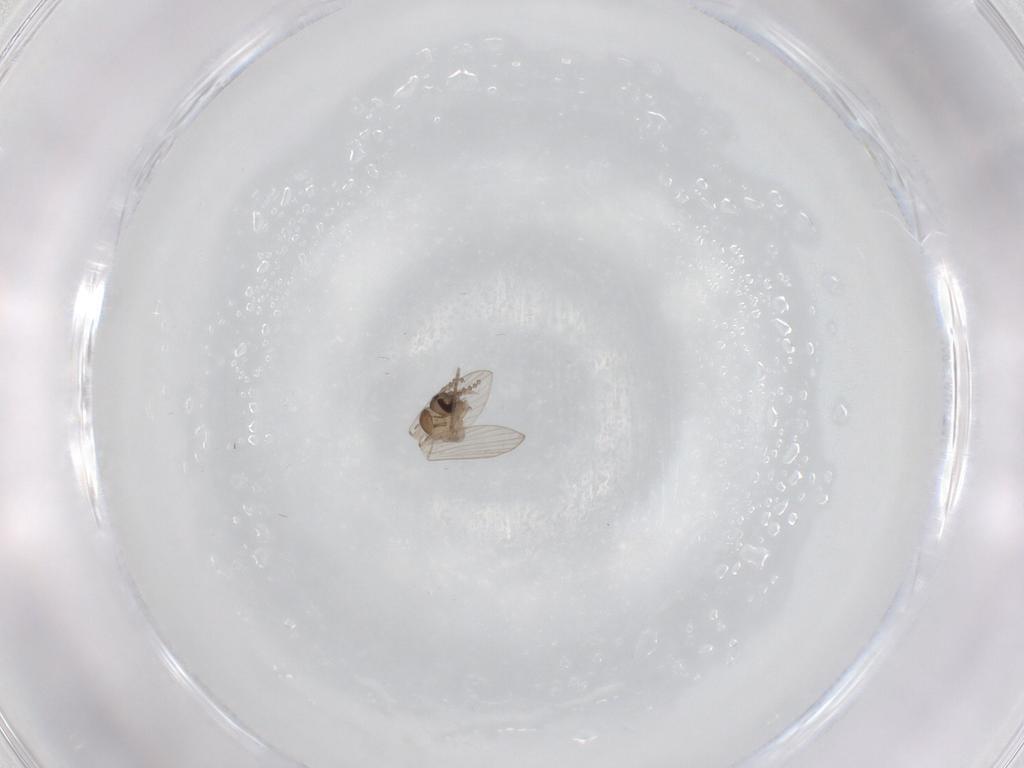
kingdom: Animalia
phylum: Arthropoda
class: Insecta
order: Diptera
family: Psychodidae
